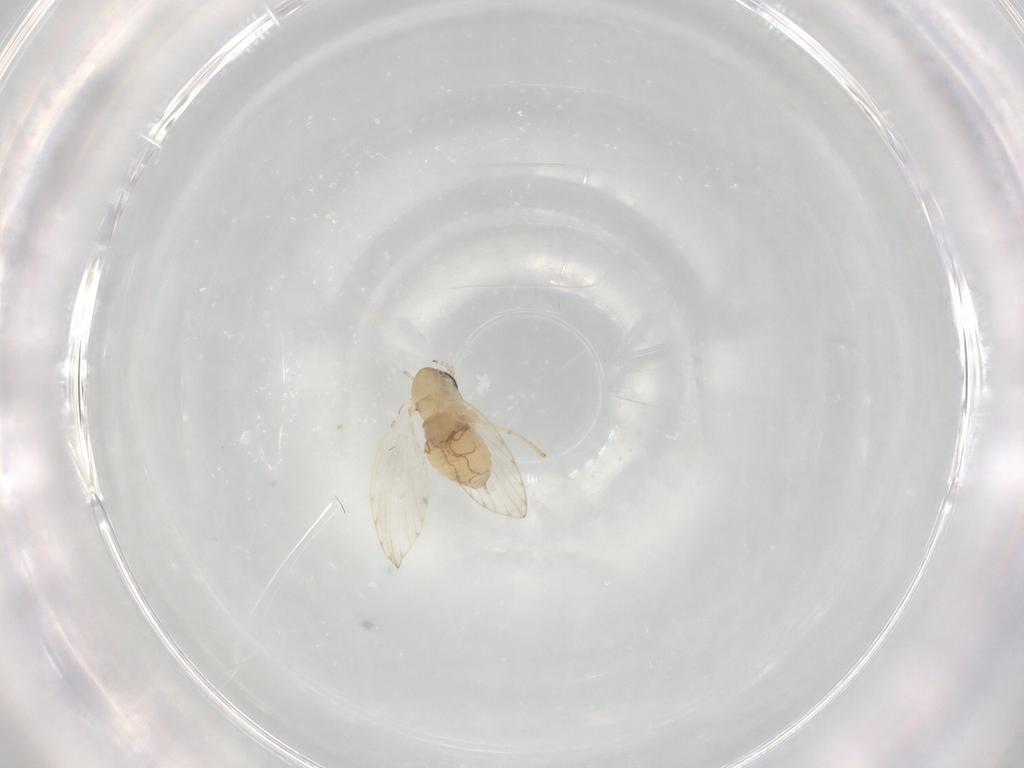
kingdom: Animalia
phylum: Arthropoda
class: Insecta
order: Diptera
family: Psychodidae
